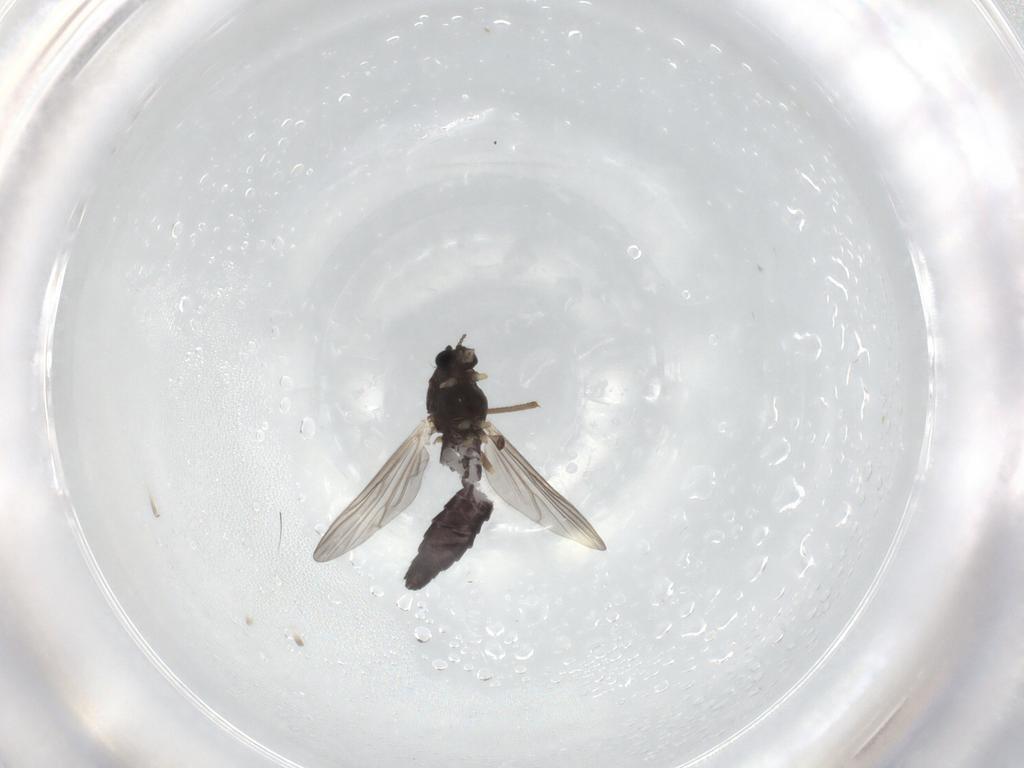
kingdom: Animalia
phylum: Arthropoda
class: Insecta
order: Diptera
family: Chironomidae
